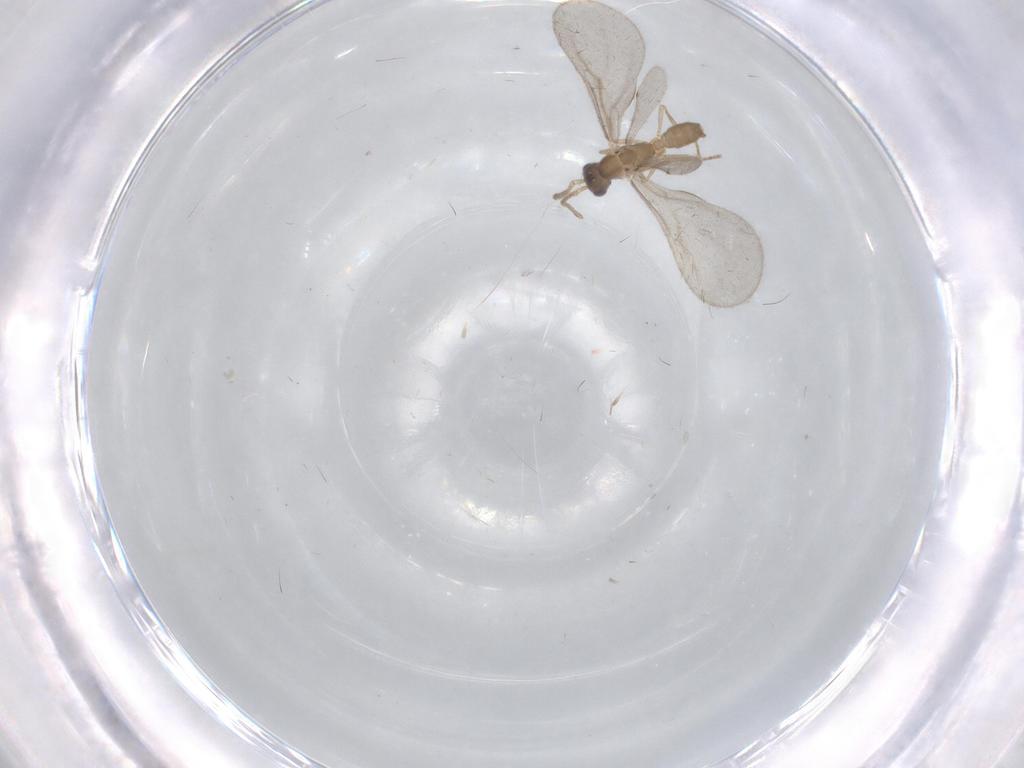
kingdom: Animalia
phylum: Arthropoda
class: Insecta
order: Hymenoptera
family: Formicidae
